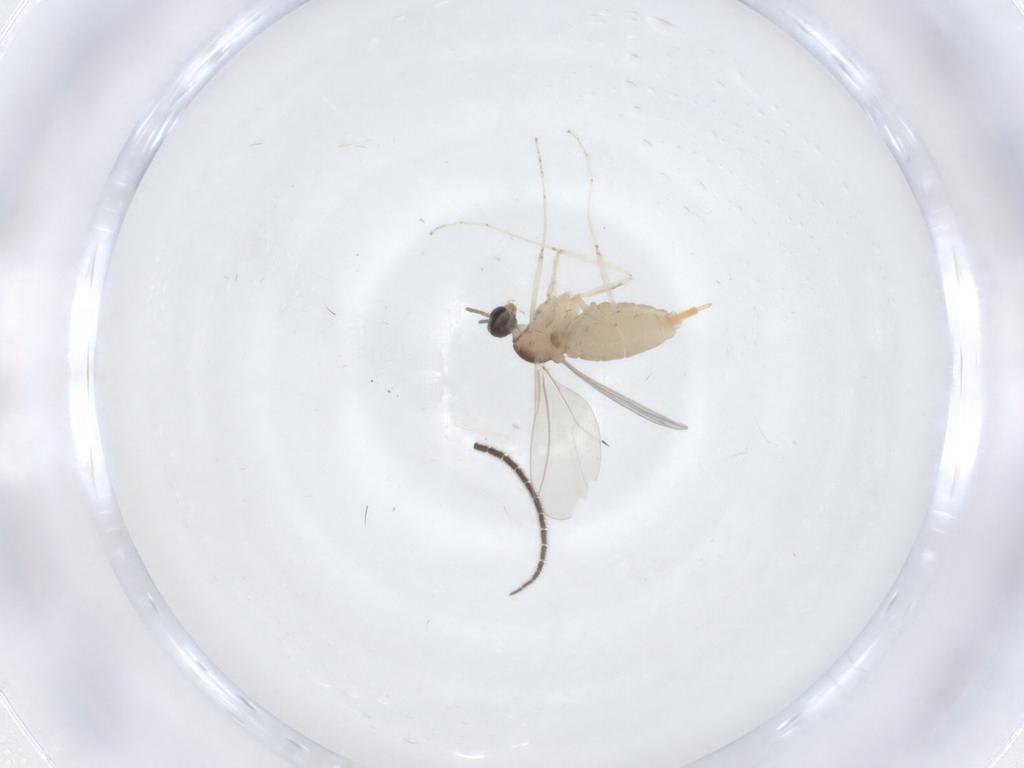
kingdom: Animalia
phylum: Arthropoda
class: Insecta
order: Diptera
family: Cecidomyiidae
